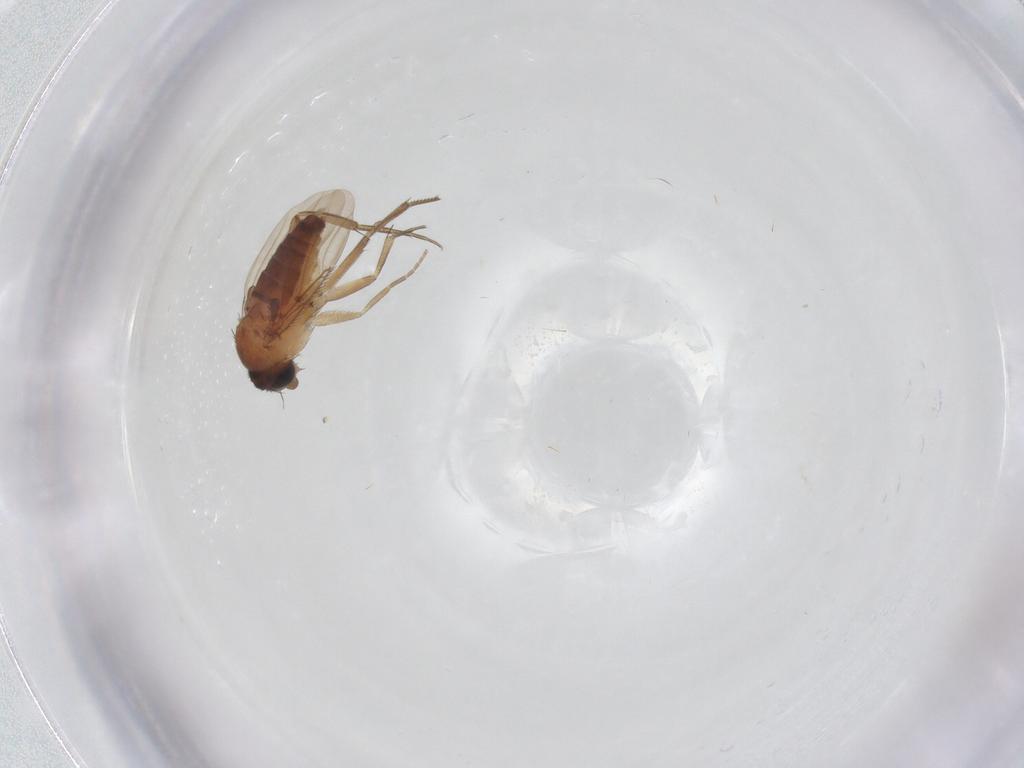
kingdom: Animalia
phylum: Arthropoda
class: Insecta
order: Diptera
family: Phoridae
